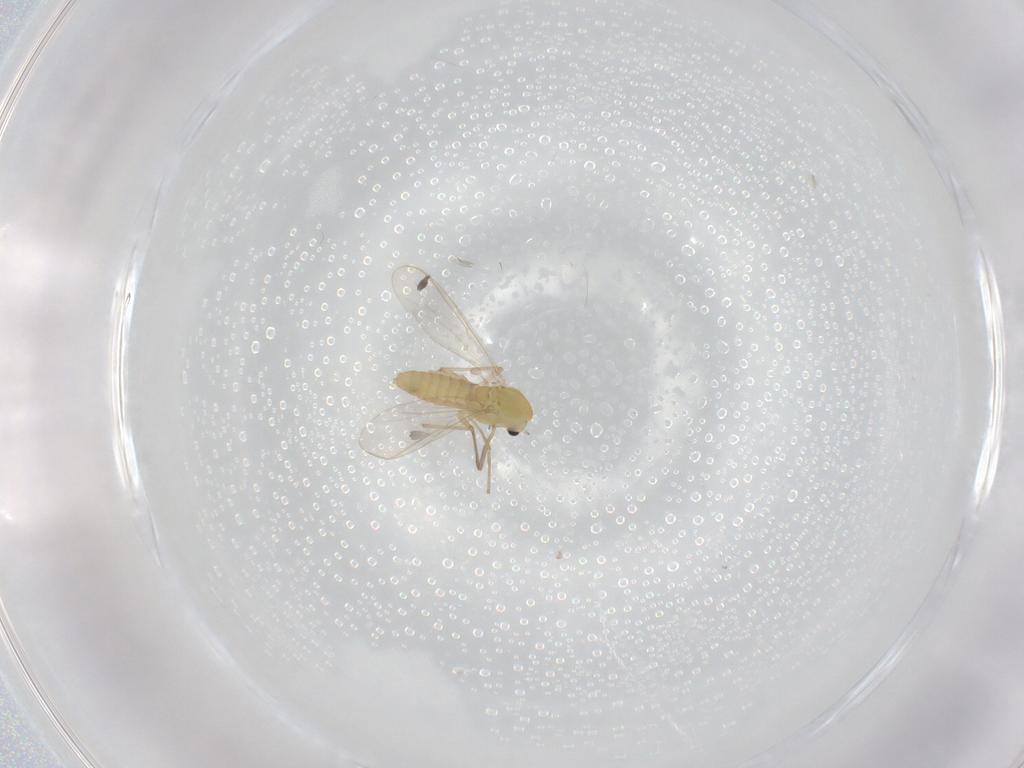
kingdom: Animalia
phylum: Arthropoda
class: Insecta
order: Diptera
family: Chironomidae
